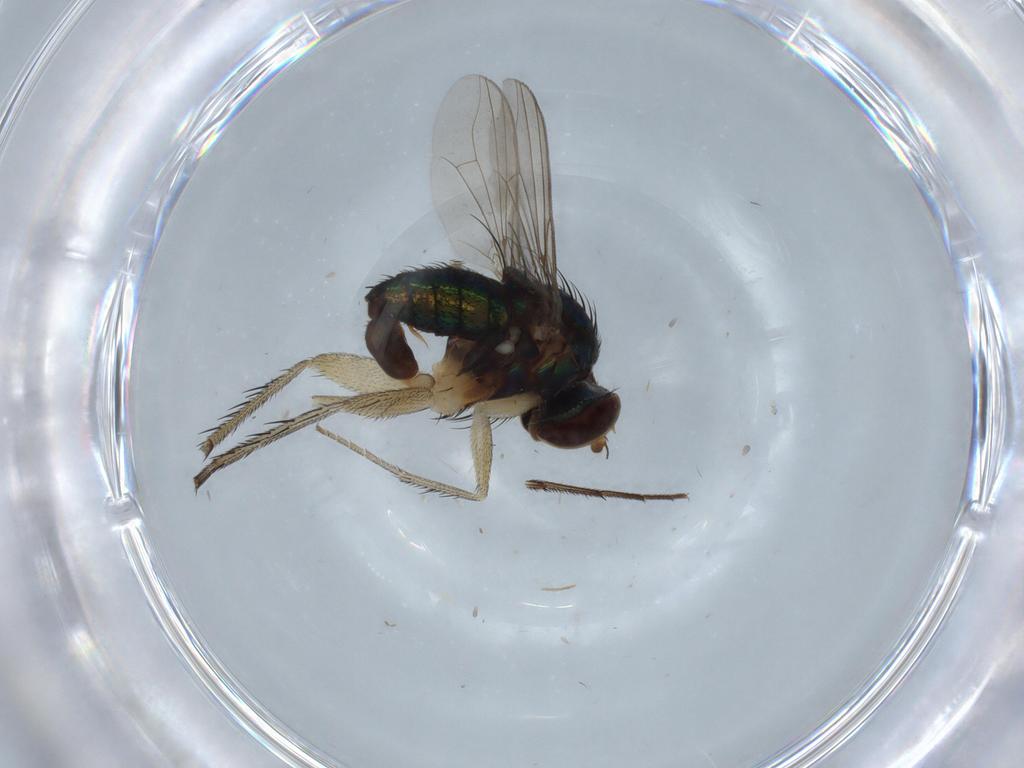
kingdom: Animalia
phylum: Arthropoda
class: Insecta
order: Diptera
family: Dolichopodidae
